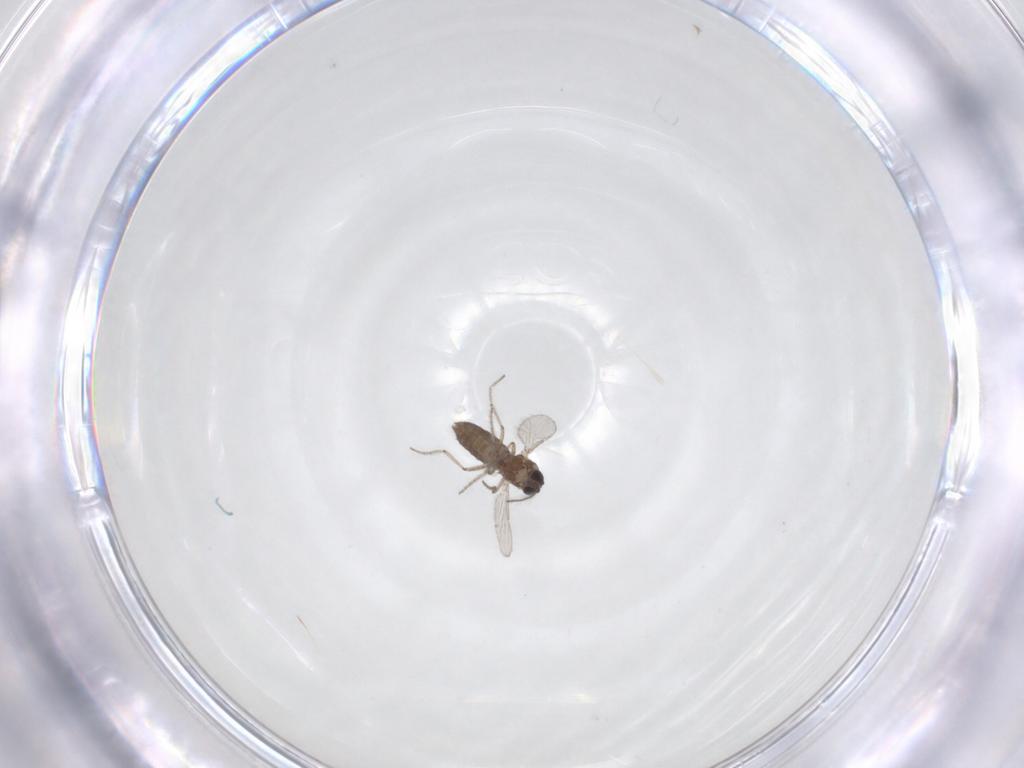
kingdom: Animalia
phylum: Arthropoda
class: Insecta
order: Diptera
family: Ceratopogonidae
